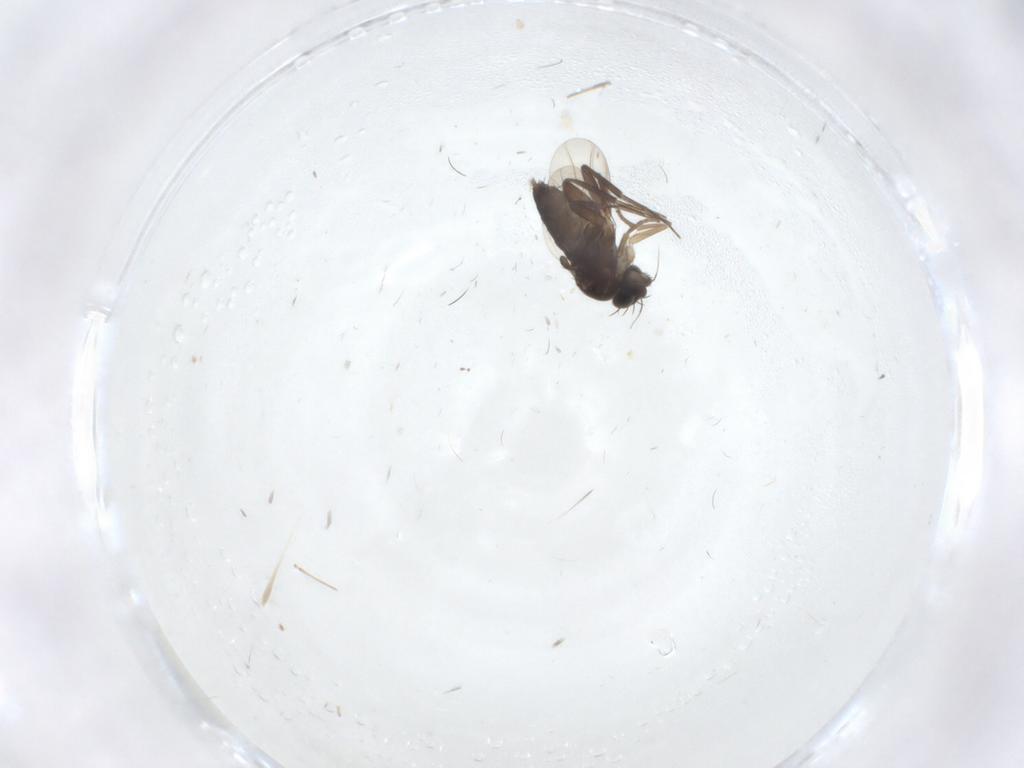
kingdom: Animalia
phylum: Arthropoda
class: Insecta
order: Diptera
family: Phoridae
